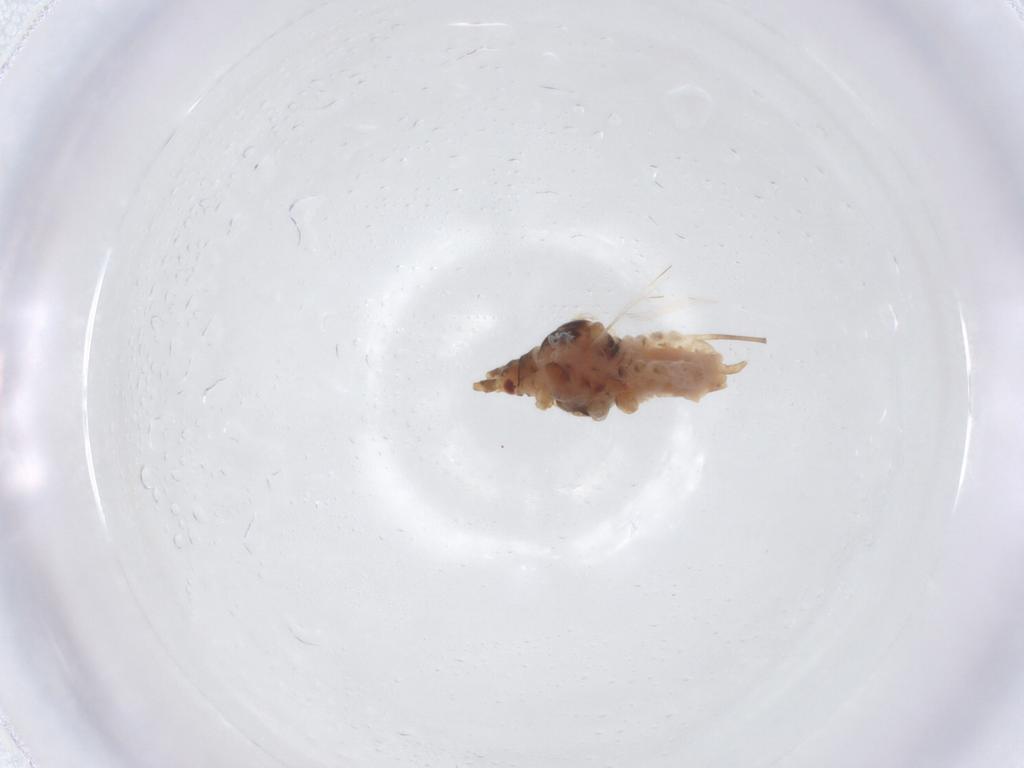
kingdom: Animalia
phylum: Arthropoda
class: Insecta
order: Hemiptera
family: Aphididae
